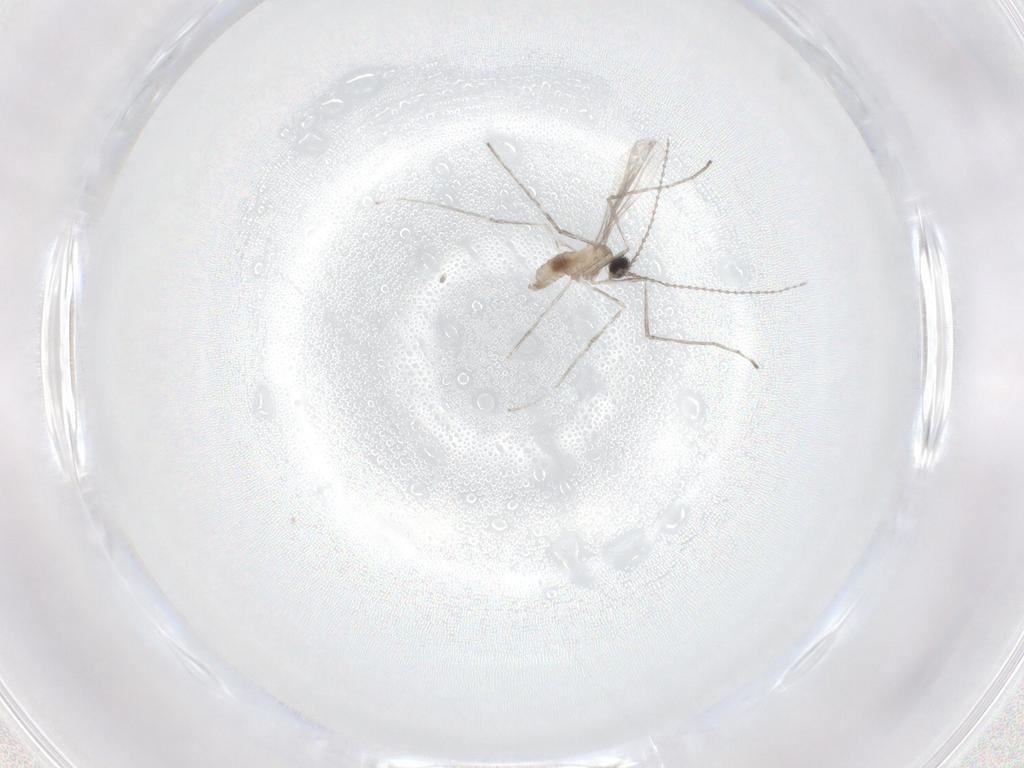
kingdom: Animalia
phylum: Arthropoda
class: Insecta
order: Diptera
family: Cecidomyiidae
